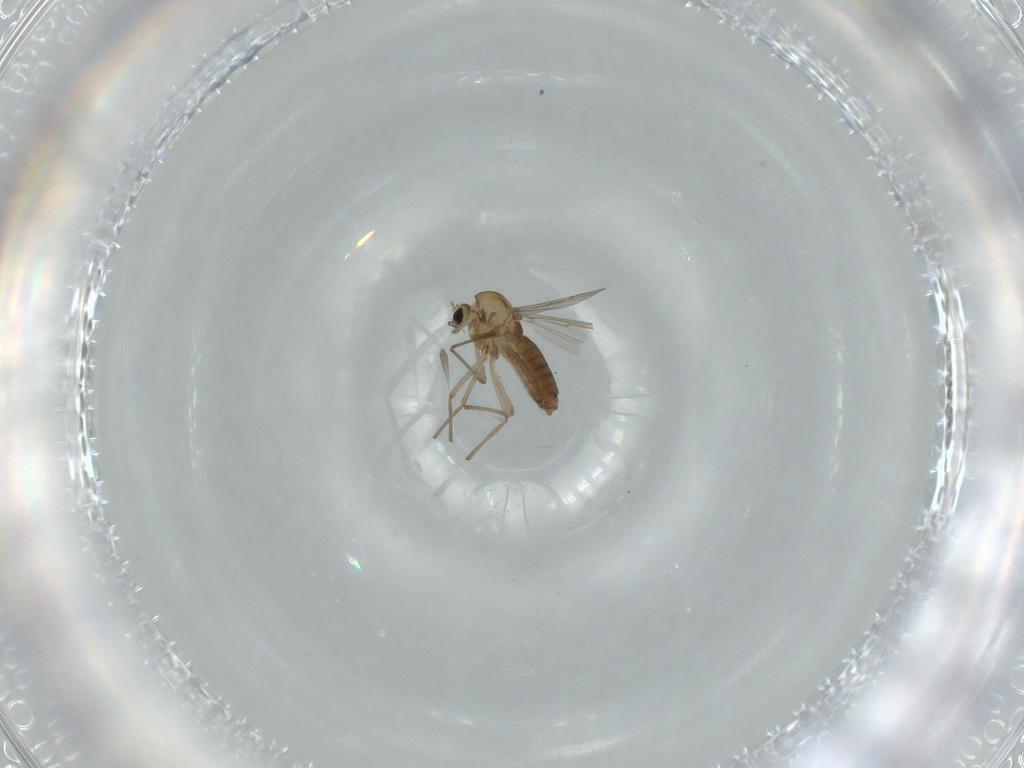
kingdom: Animalia
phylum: Arthropoda
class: Insecta
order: Diptera
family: Chironomidae
